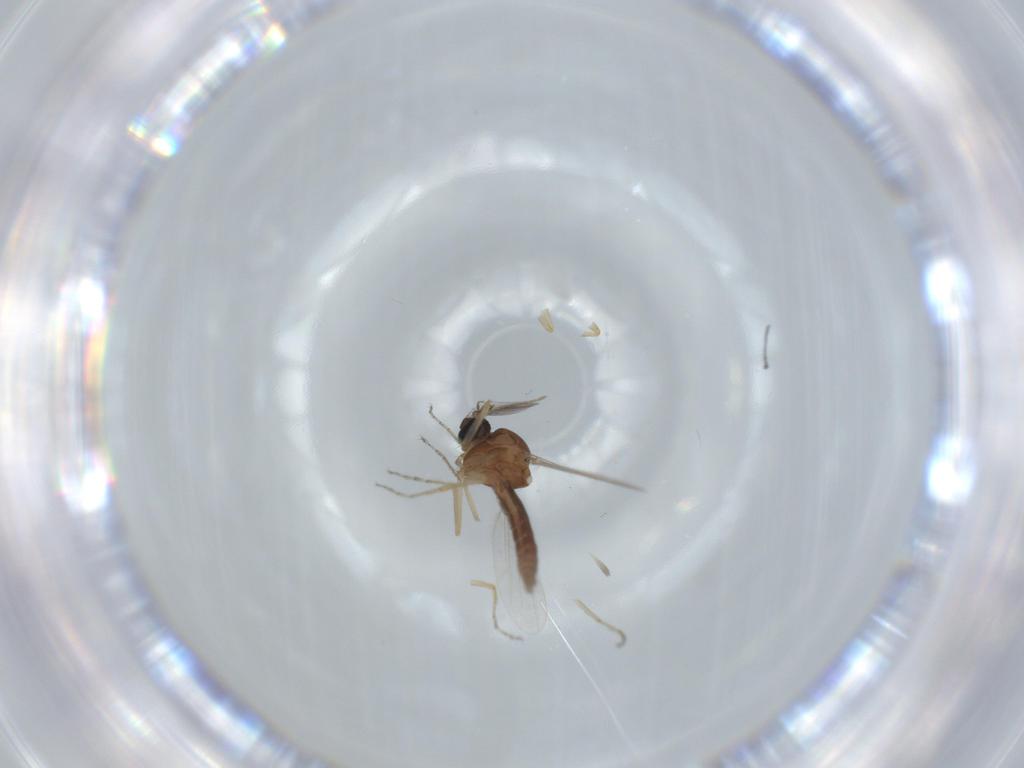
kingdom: Animalia
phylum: Arthropoda
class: Insecta
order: Diptera
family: Ceratopogonidae
